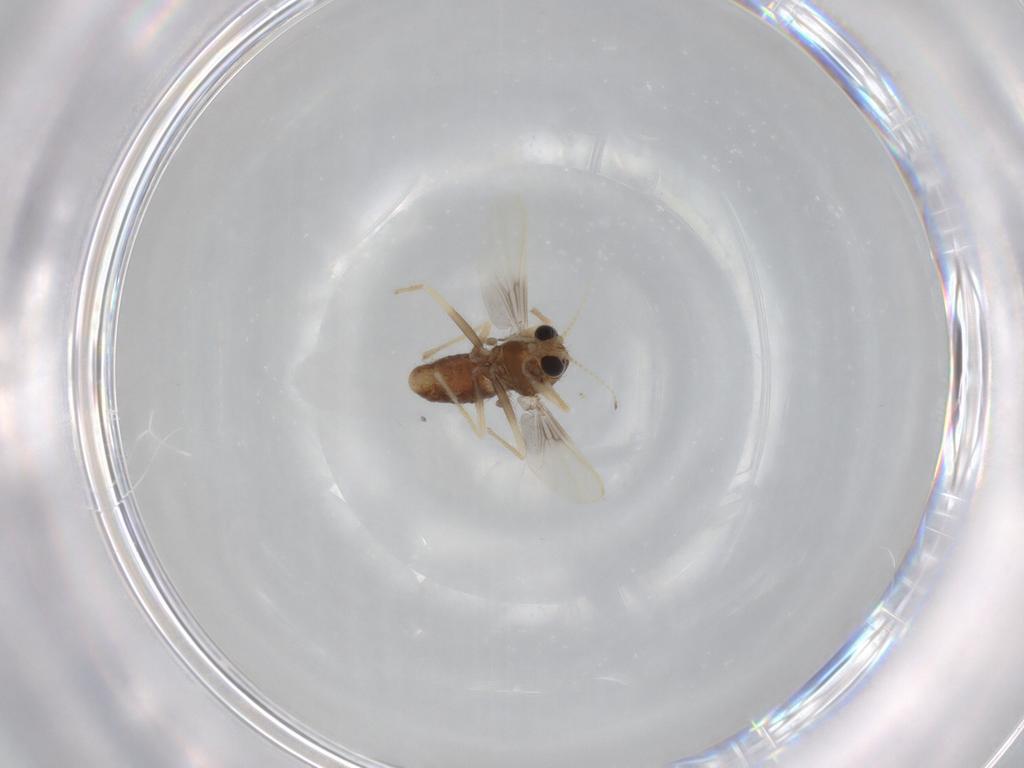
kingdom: Animalia
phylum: Arthropoda
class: Insecta
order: Diptera
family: Chironomidae
